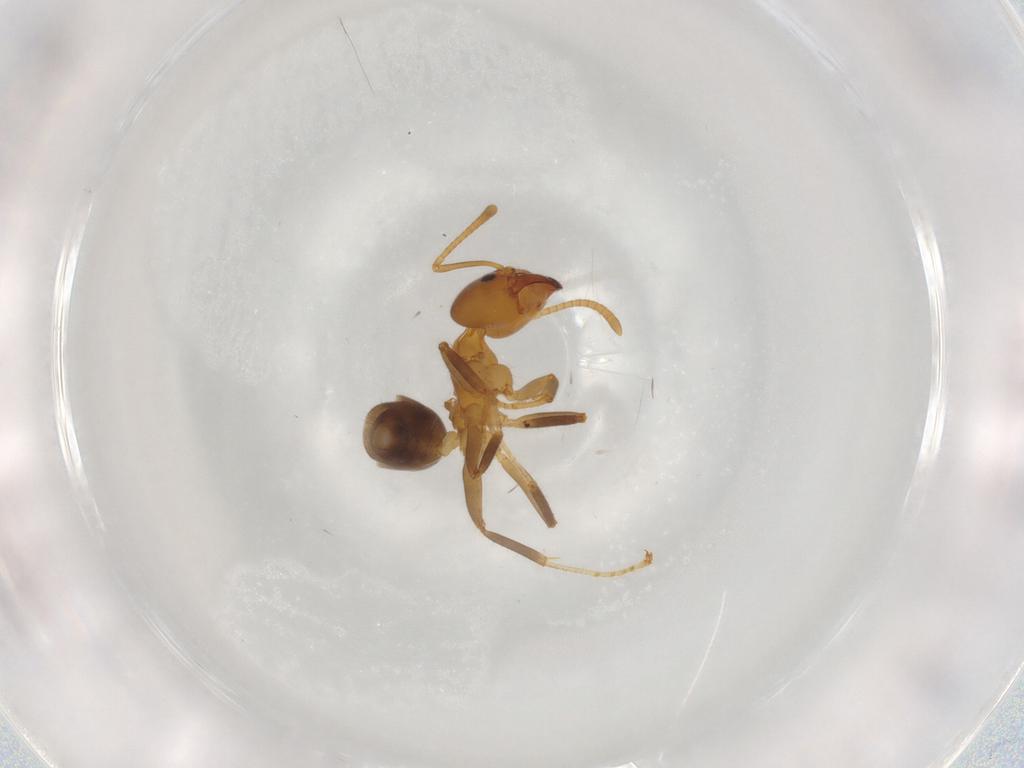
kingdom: Animalia
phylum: Arthropoda
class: Insecta
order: Hymenoptera
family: Formicidae
